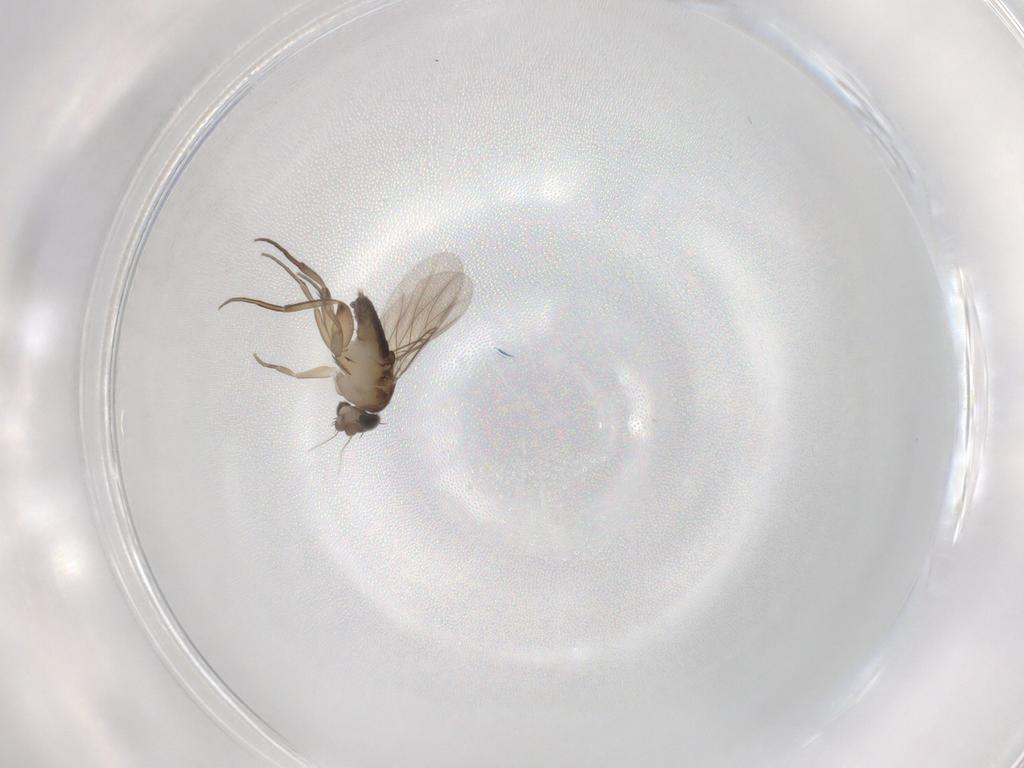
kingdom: Animalia
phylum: Arthropoda
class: Insecta
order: Diptera
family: Phoridae
